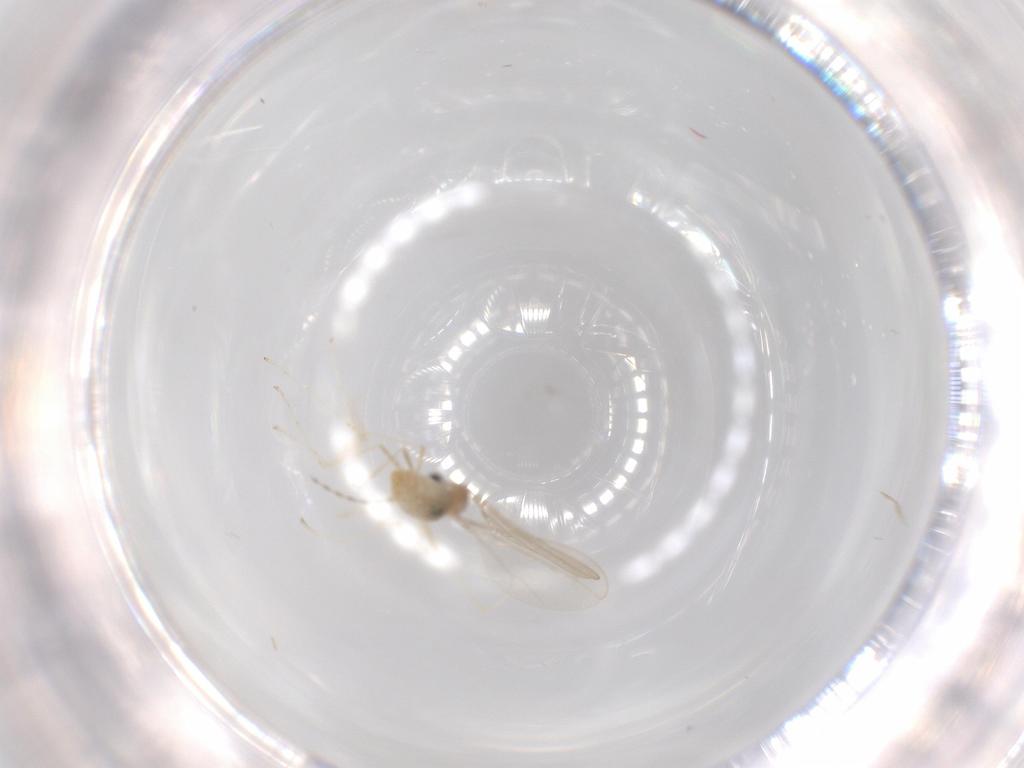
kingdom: Animalia
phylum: Arthropoda
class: Insecta
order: Diptera
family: Cecidomyiidae
